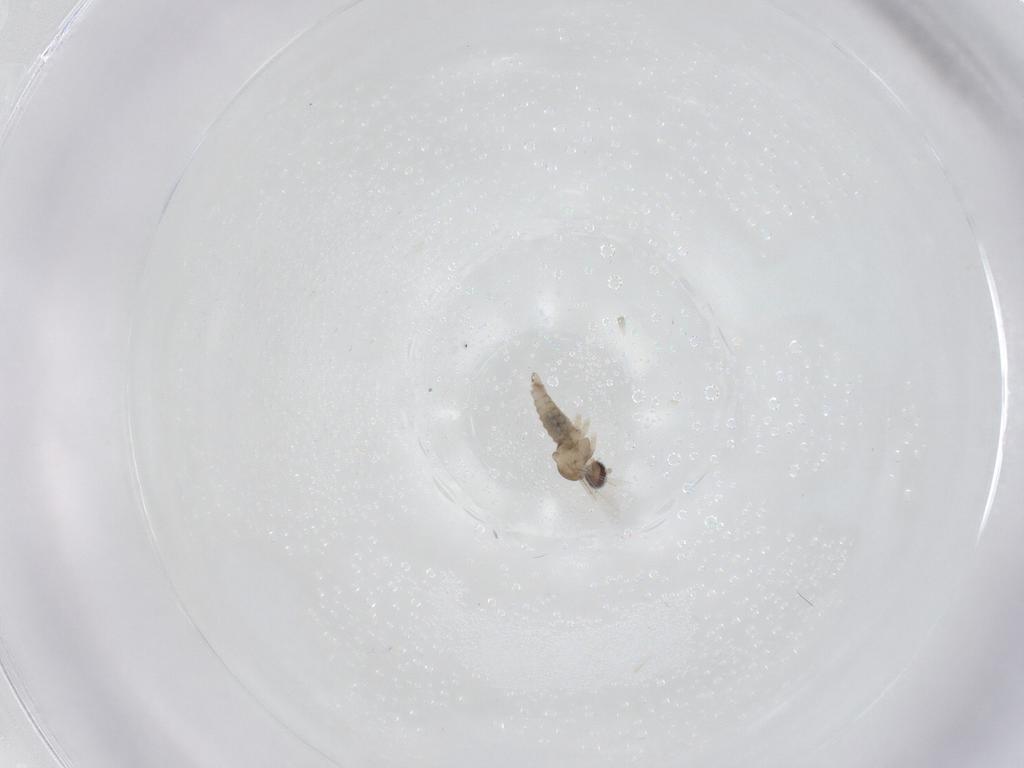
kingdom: Animalia
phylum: Arthropoda
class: Insecta
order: Diptera
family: Cecidomyiidae
